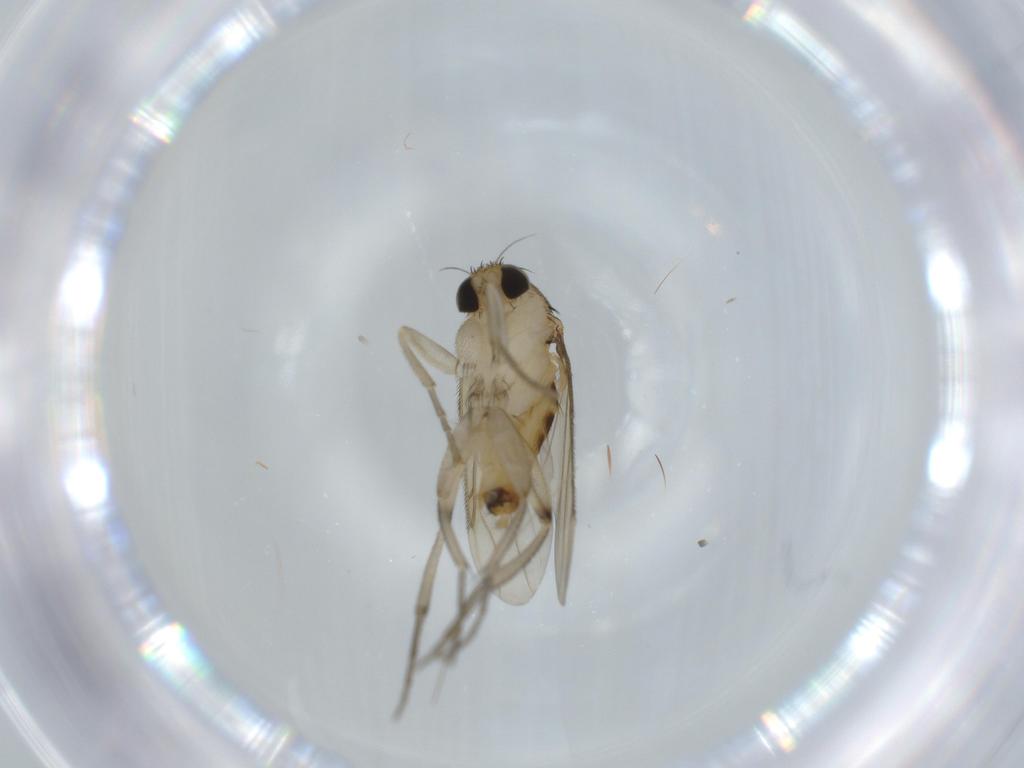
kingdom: Animalia
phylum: Arthropoda
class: Insecta
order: Diptera
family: Phoridae
